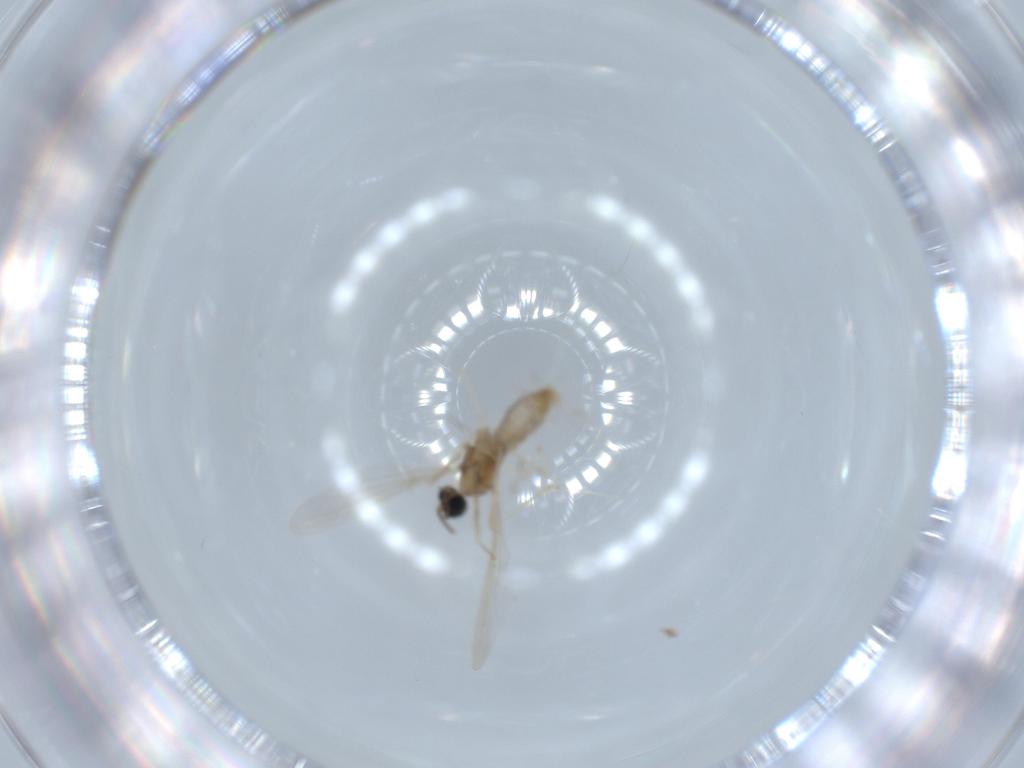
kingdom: Animalia
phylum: Arthropoda
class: Insecta
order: Diptera
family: Cecidomyiidae
